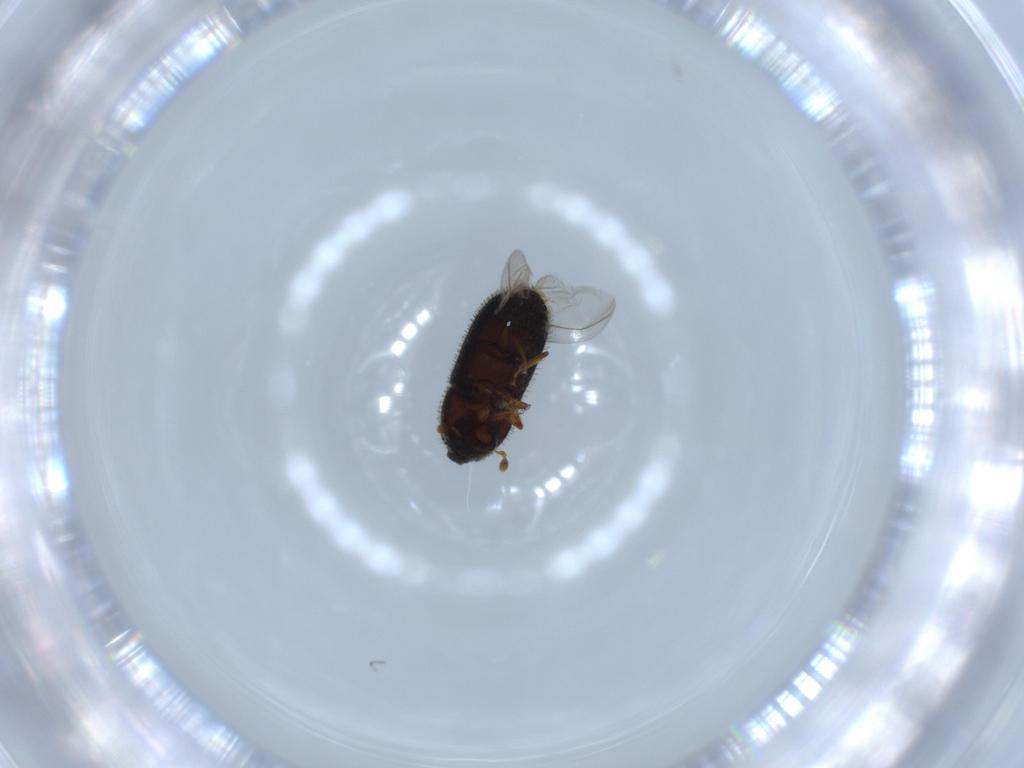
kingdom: Animalia
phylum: Arthropoda
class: Insecta
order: Coleoptera
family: Curculionidae
